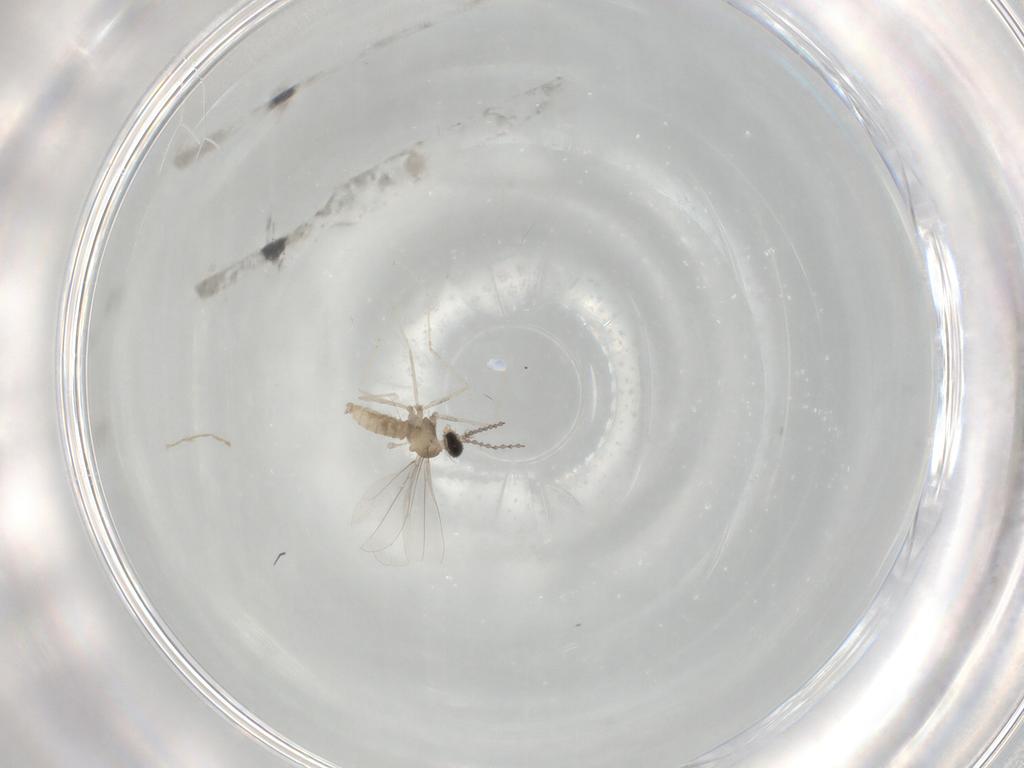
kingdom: Animalia
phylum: Arthropoda
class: Insecta
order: Diptera
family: Cecidomyiidae
